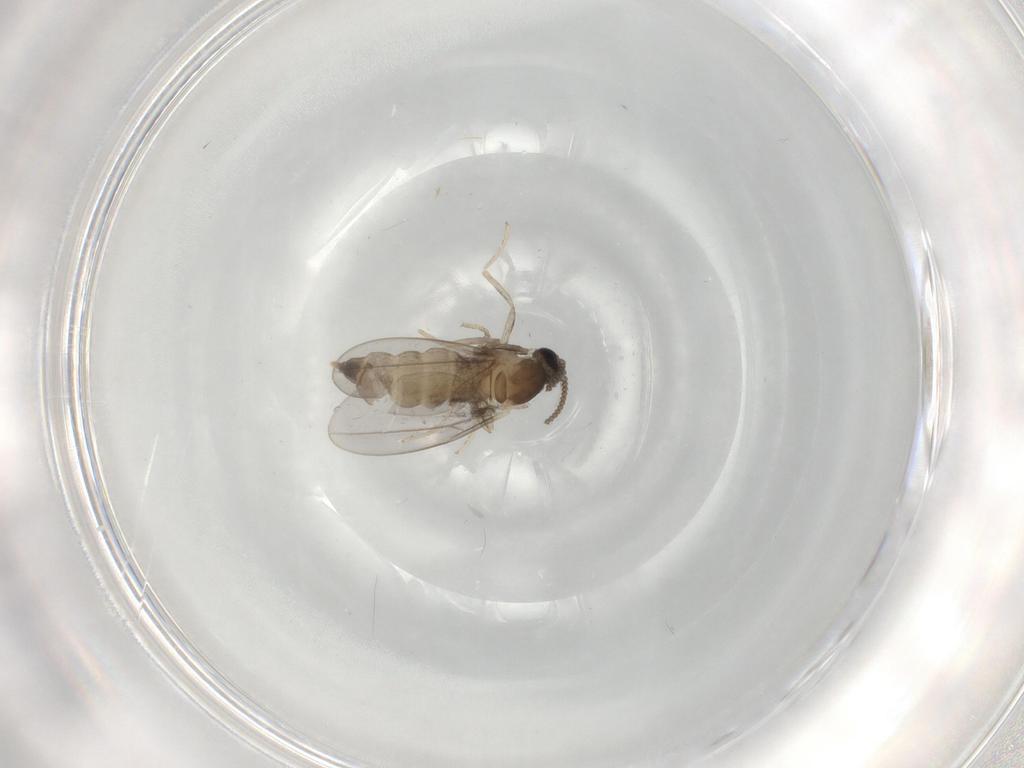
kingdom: Animalia
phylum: Arthropoda
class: Insecta
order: Diptera
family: Cecidomyiidae
